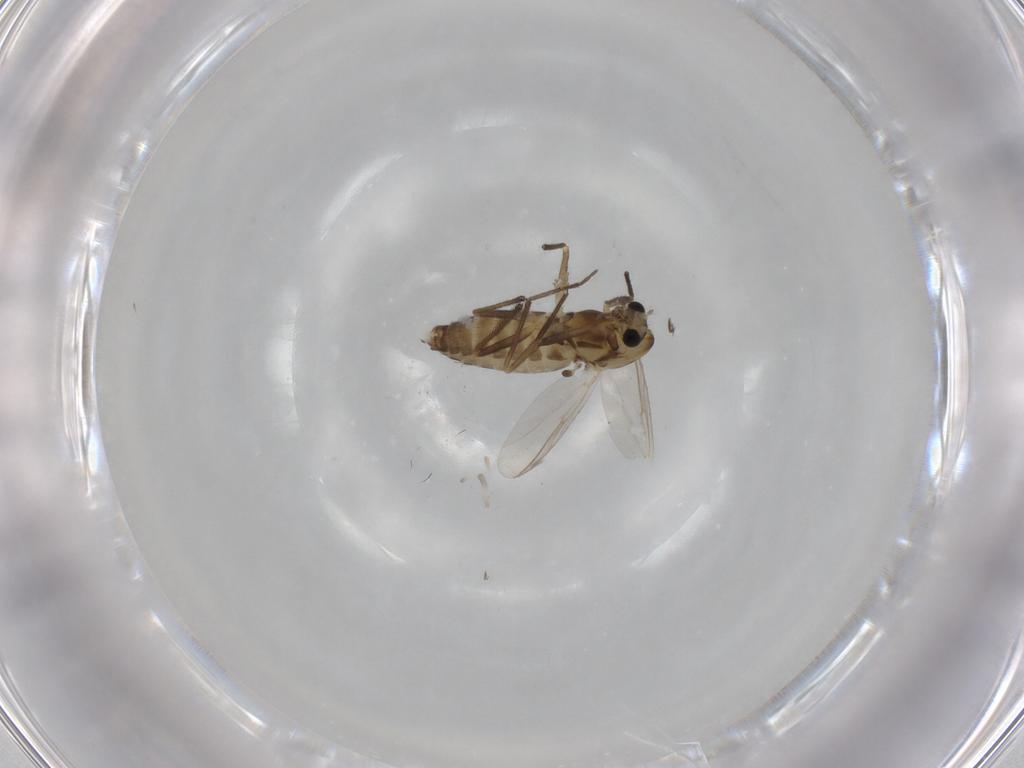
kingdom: Animalia
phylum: Arthropoda
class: Insecta
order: Diptera
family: Chironomidae
